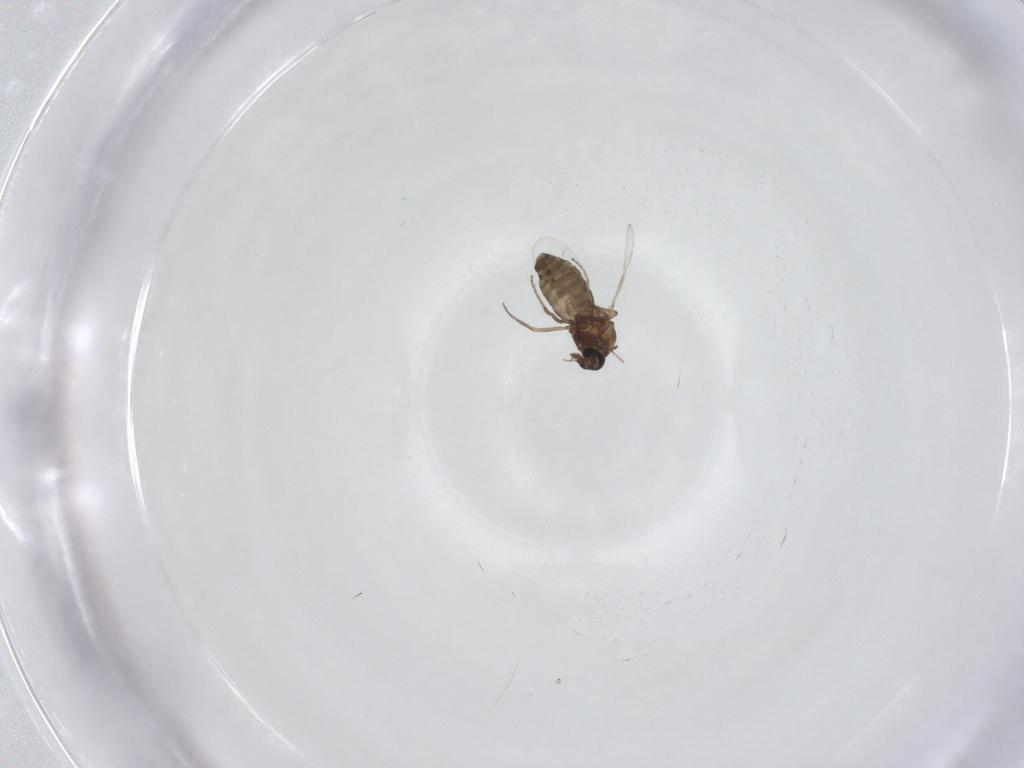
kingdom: Animalia
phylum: Arthropoda
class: Insecta
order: Diptera
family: Ceratopogonidae
